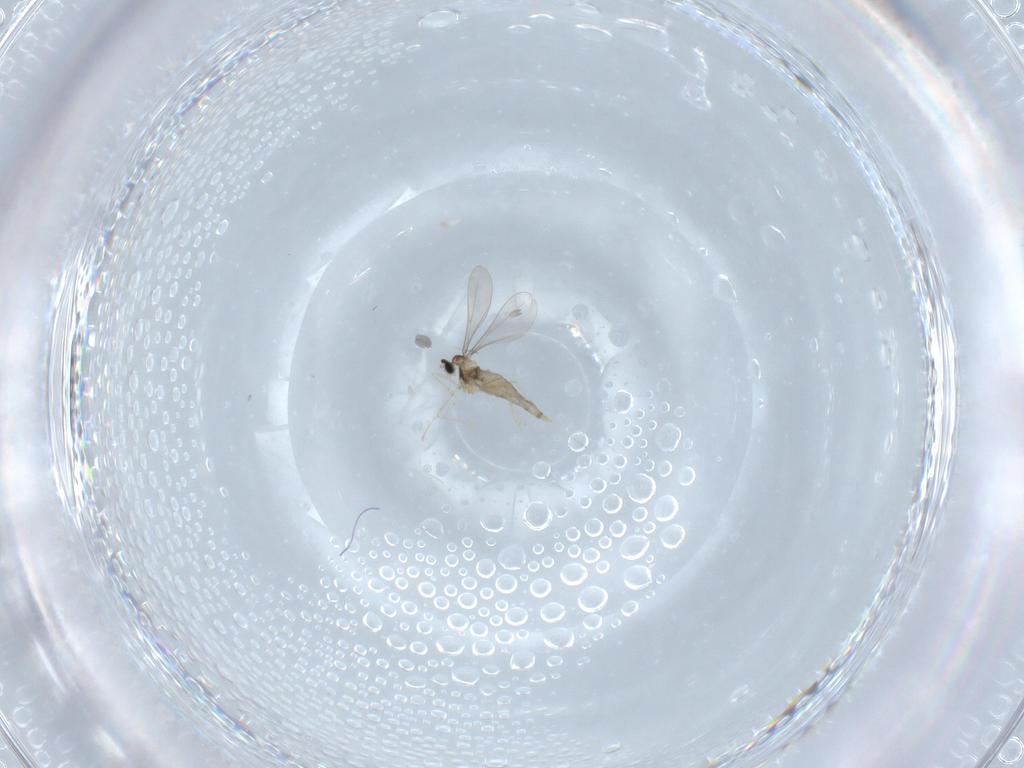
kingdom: Animalia
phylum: Arthropoda
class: Insecta
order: Diptera
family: Cecidomyiidae
